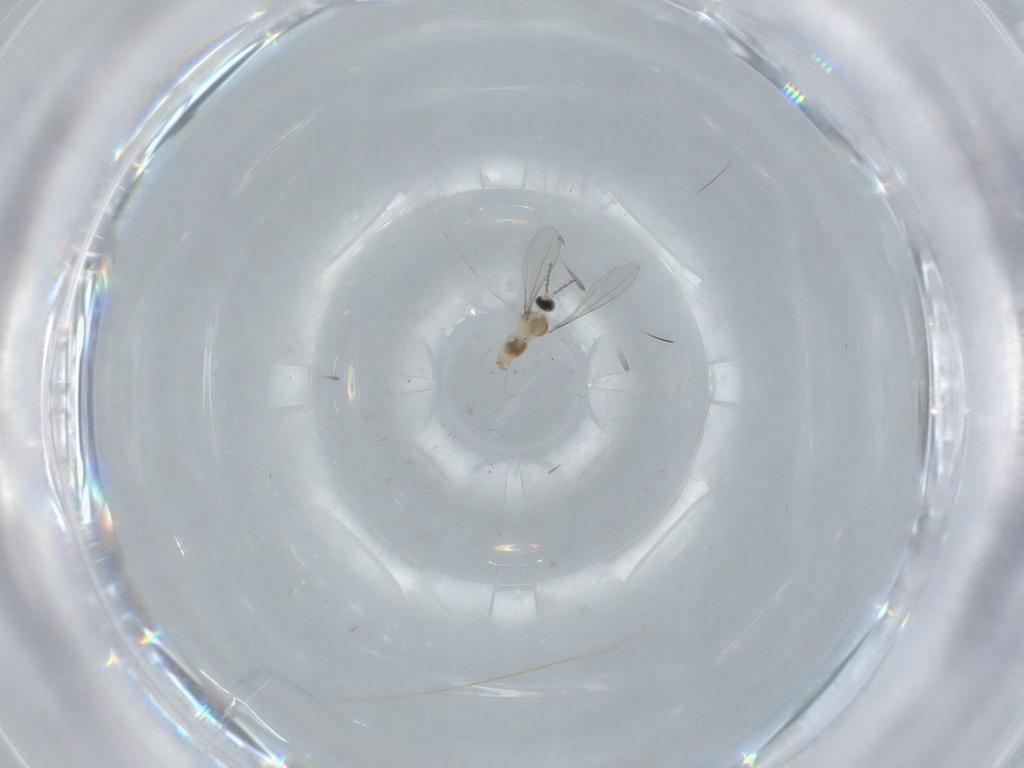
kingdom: Animalia
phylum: Arthropoda
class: Insecta
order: Diptera
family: Cecidomyiidae
